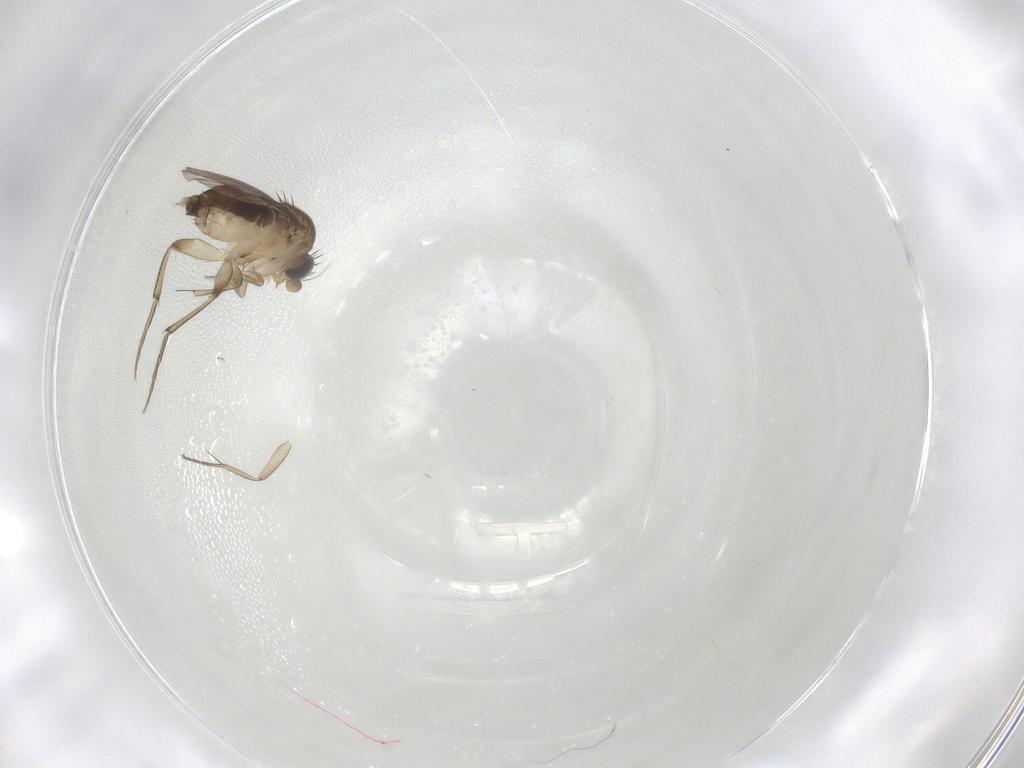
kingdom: Animalia
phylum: Arthropoda
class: Insecta
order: Diptera
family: Phoridae
